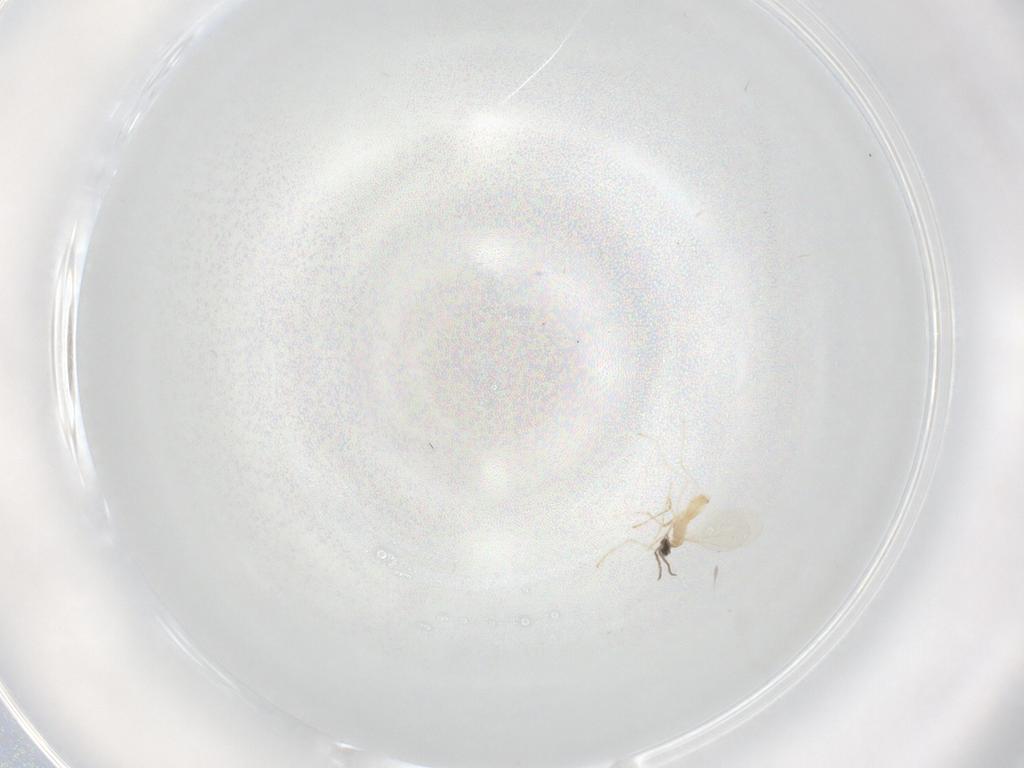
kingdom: Animalia
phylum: Arthropoda
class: Insecta
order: Diptera
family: Cecidomyiidae
